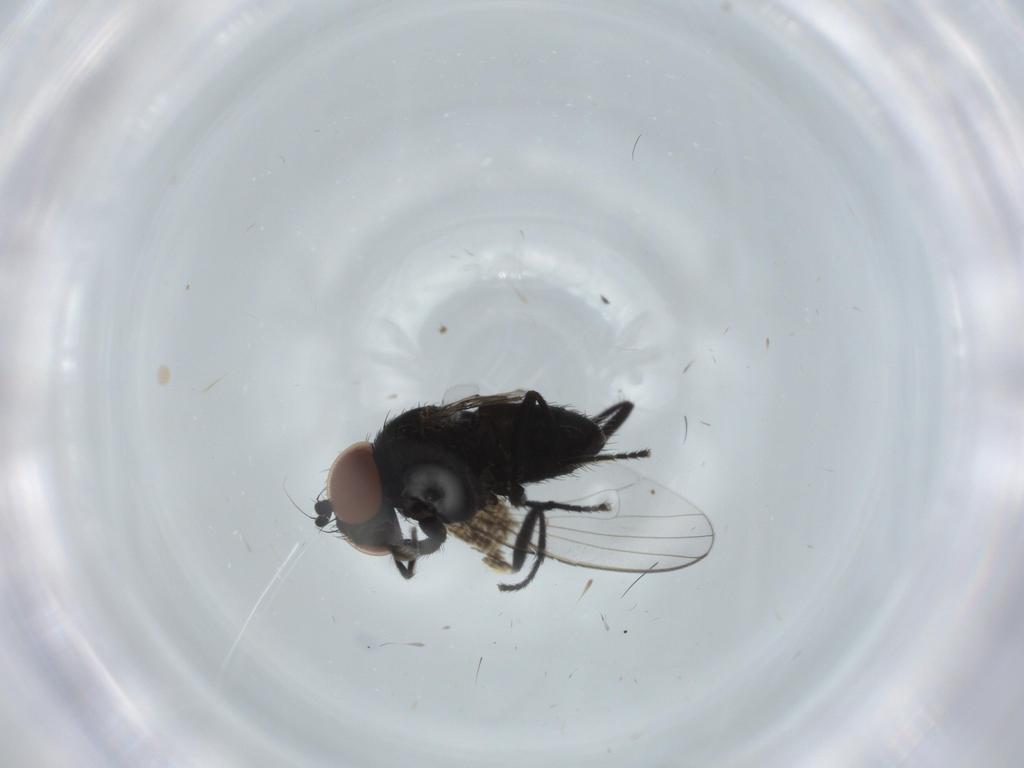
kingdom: Animalia
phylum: Arthropoda
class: Insecta
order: Diptera
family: Milichiidae
